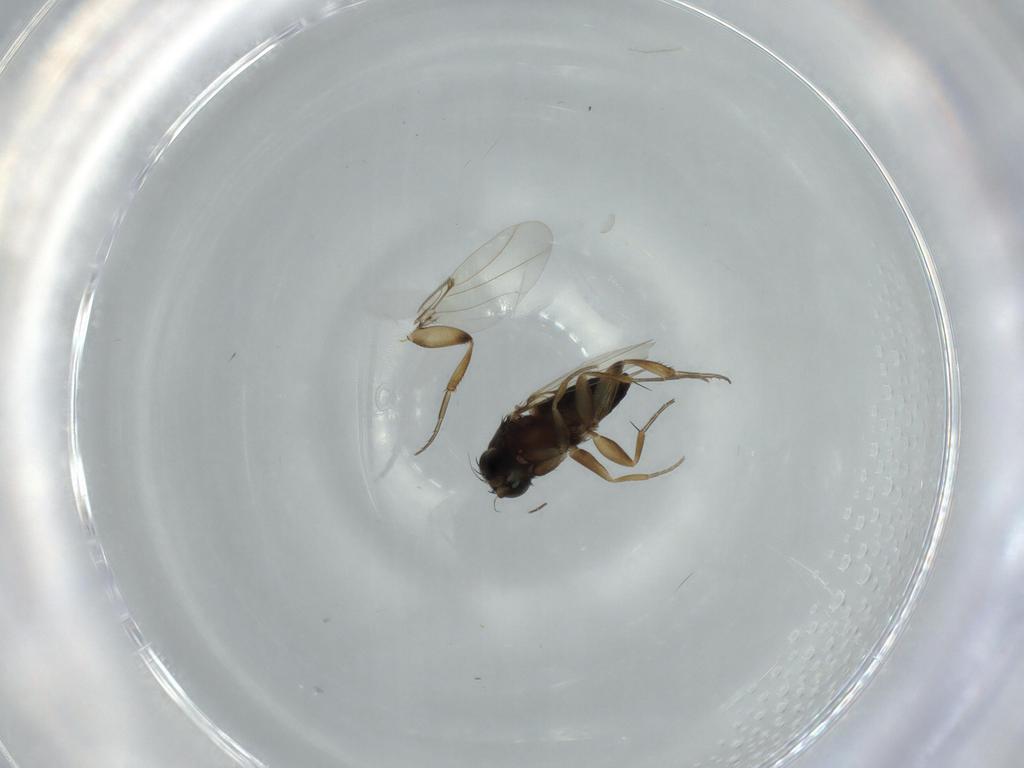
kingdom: Animalia
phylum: Arthropoda
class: Insecta
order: Diptera
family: Phoridae
